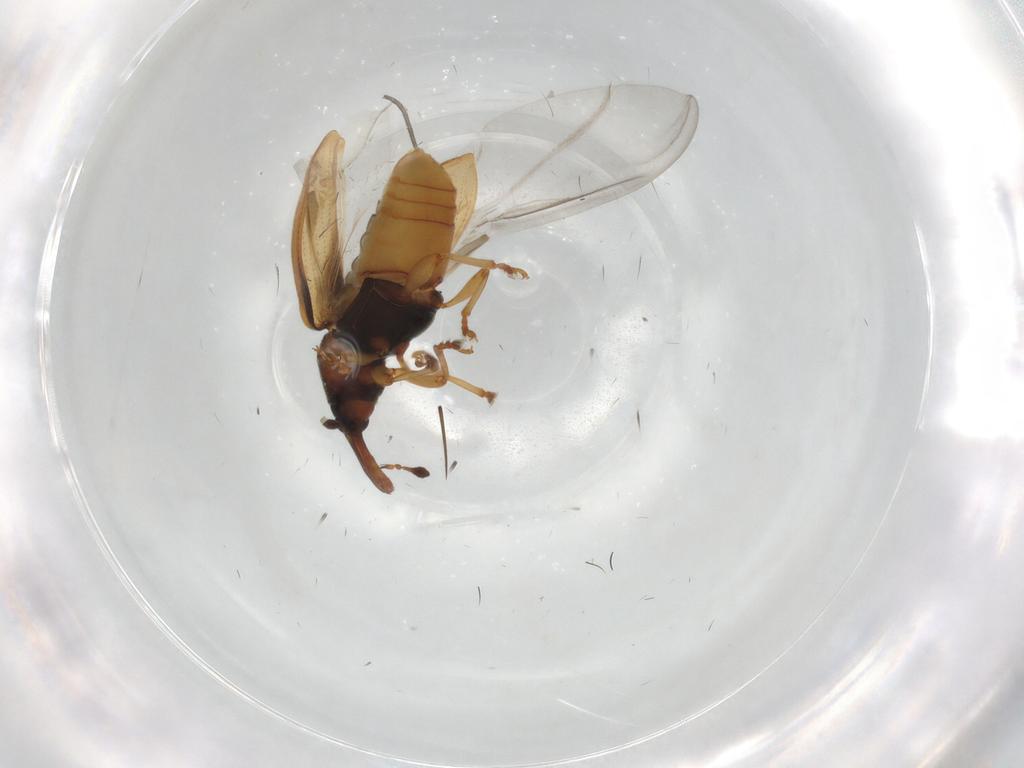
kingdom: Animalia
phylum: Arthropoda
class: Insecta
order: Coleoptera
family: Curculionidae
